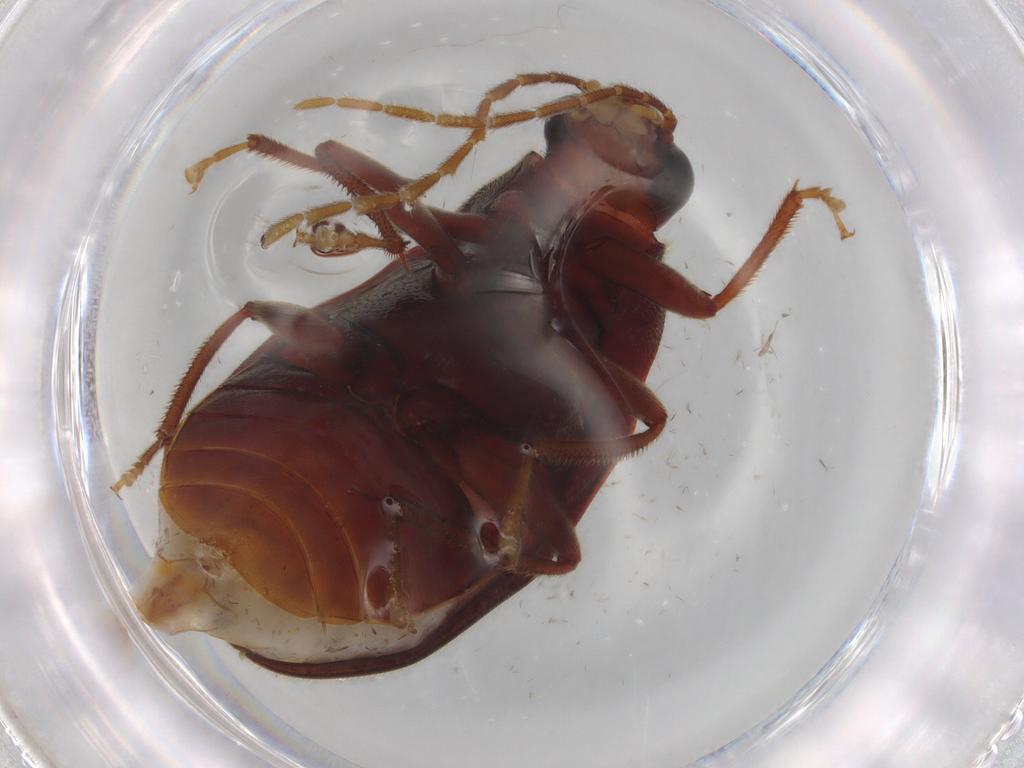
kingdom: Animalia
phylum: Arthropoda
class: Insecta
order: Coleoptera
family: Ptilodactylidae
